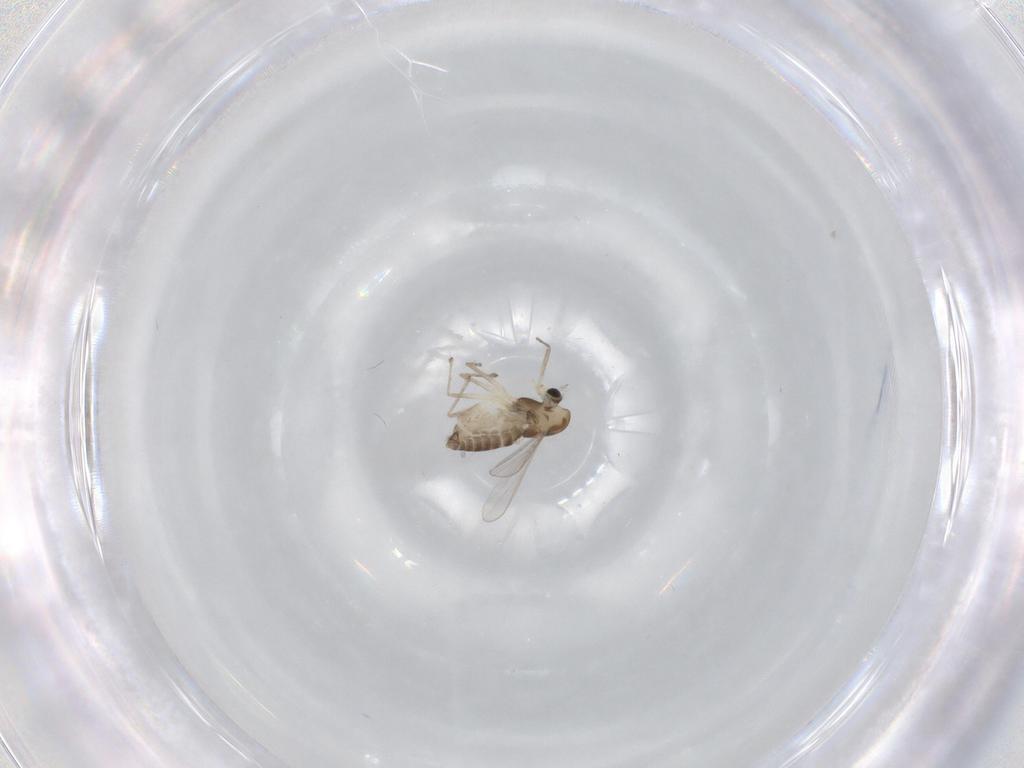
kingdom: Animalia
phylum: Arthropoda
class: Insecta
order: Diptera
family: Chironomidae
